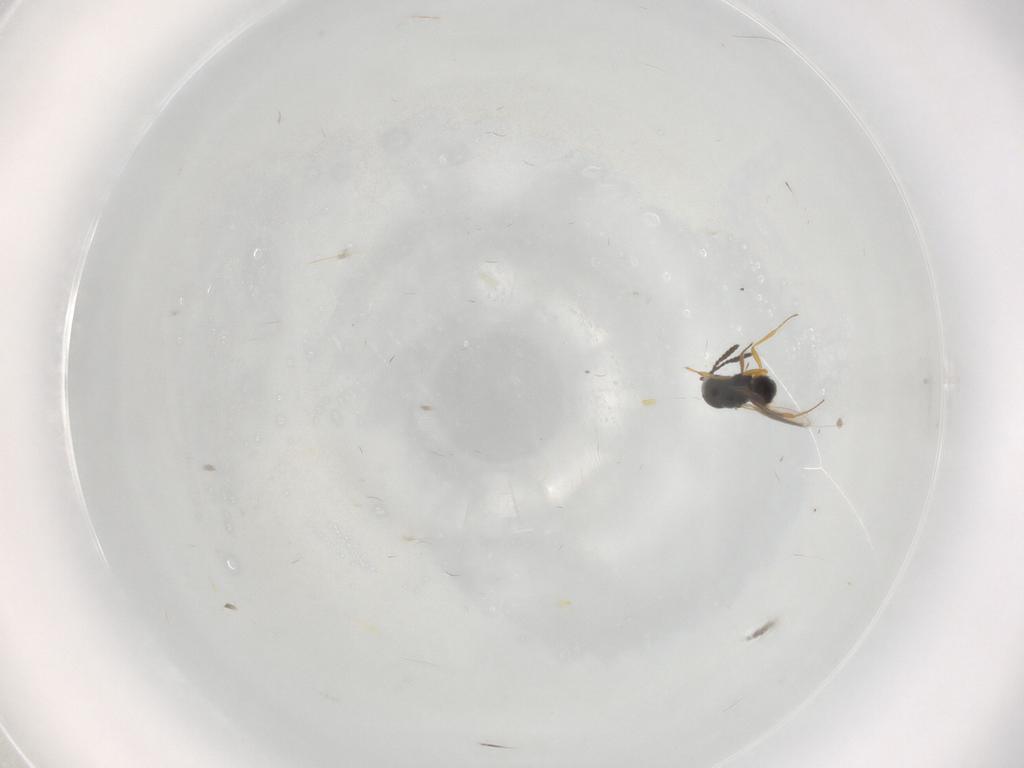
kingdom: Animalia
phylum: Arthropoda
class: Insecta
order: Hymenoptera
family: Scelionidae
